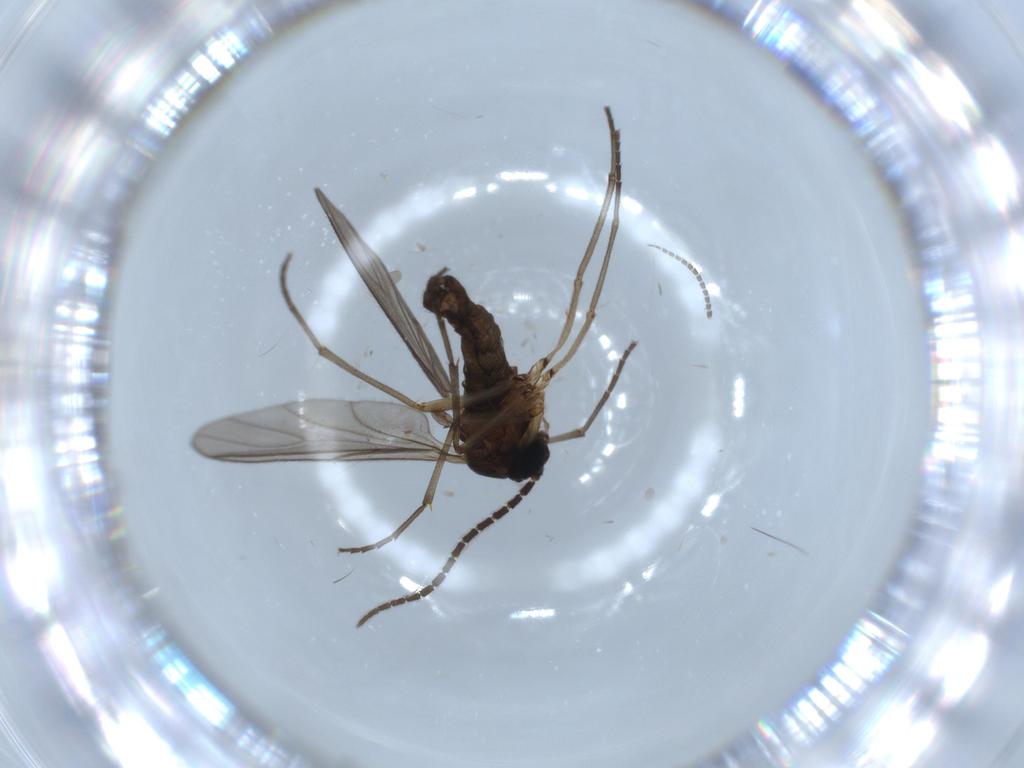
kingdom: Animalia
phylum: Arthropoda
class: Insecta
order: Diptera
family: Sciaridae
